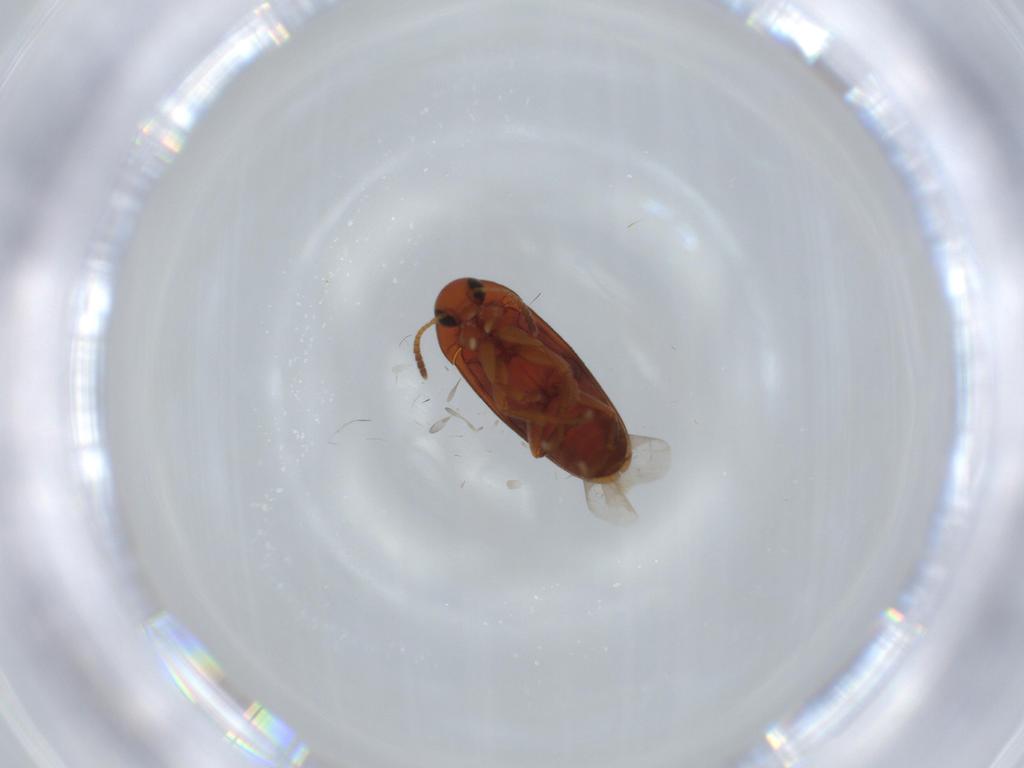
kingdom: Animalia
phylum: Arthropoda
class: Insecta
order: Coleoptera
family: Scraptiidae
